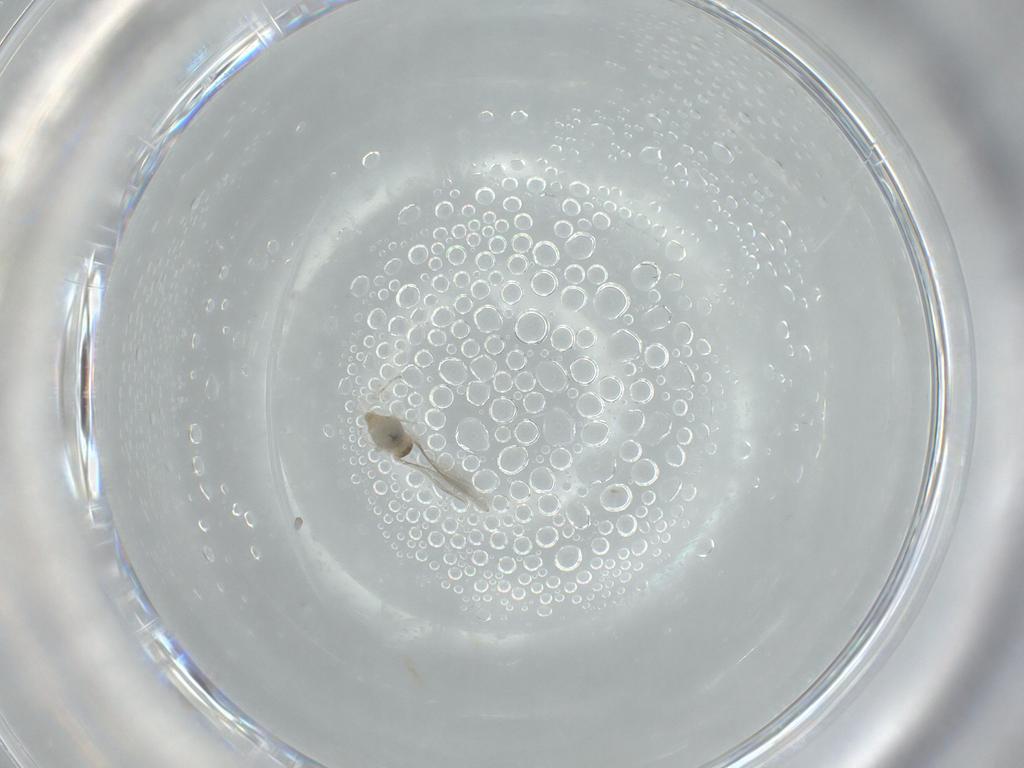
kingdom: Animalia
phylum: Arthropoda
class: Insecta
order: Diptera
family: Cecidomyiidae
